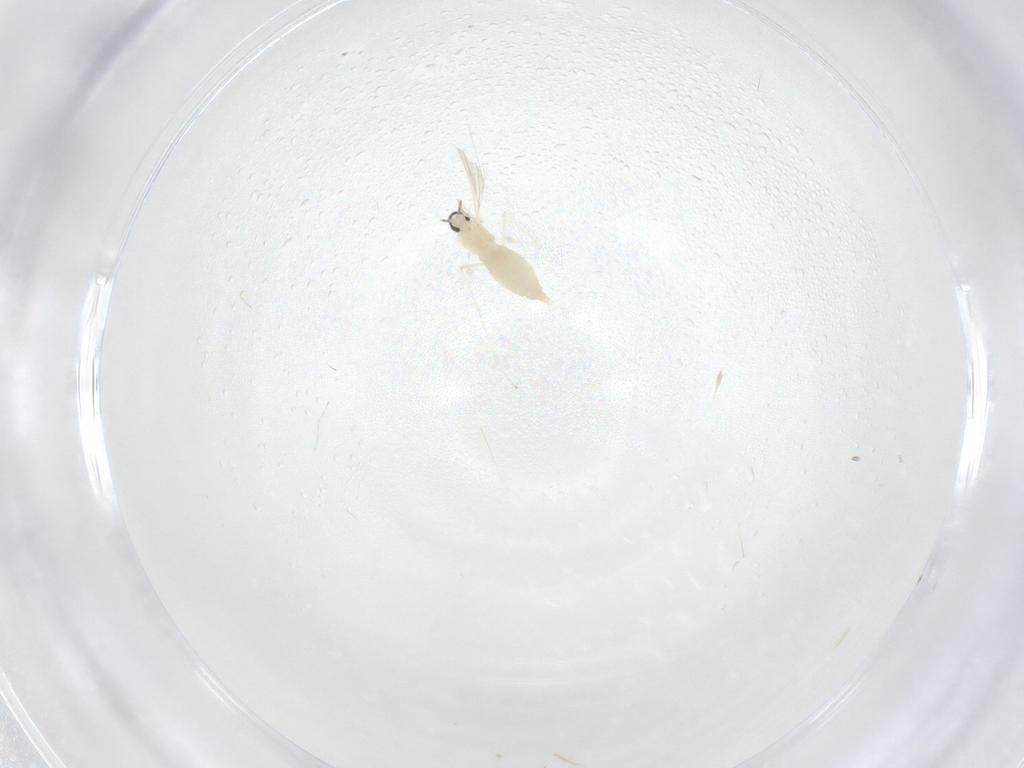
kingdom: Animalia
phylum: Arthropoda
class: Insecta
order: Diptera
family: Cecidomyiidae
